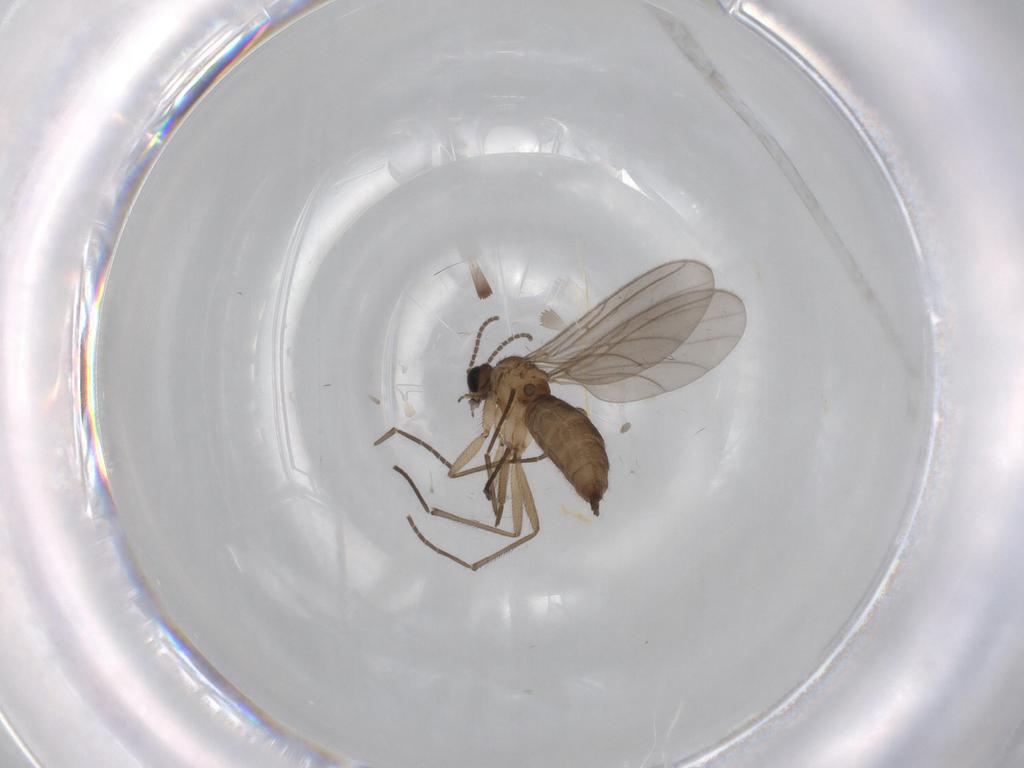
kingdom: Animalia
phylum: Arthropoda
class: Insecta
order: Diptera
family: Sciaridae
